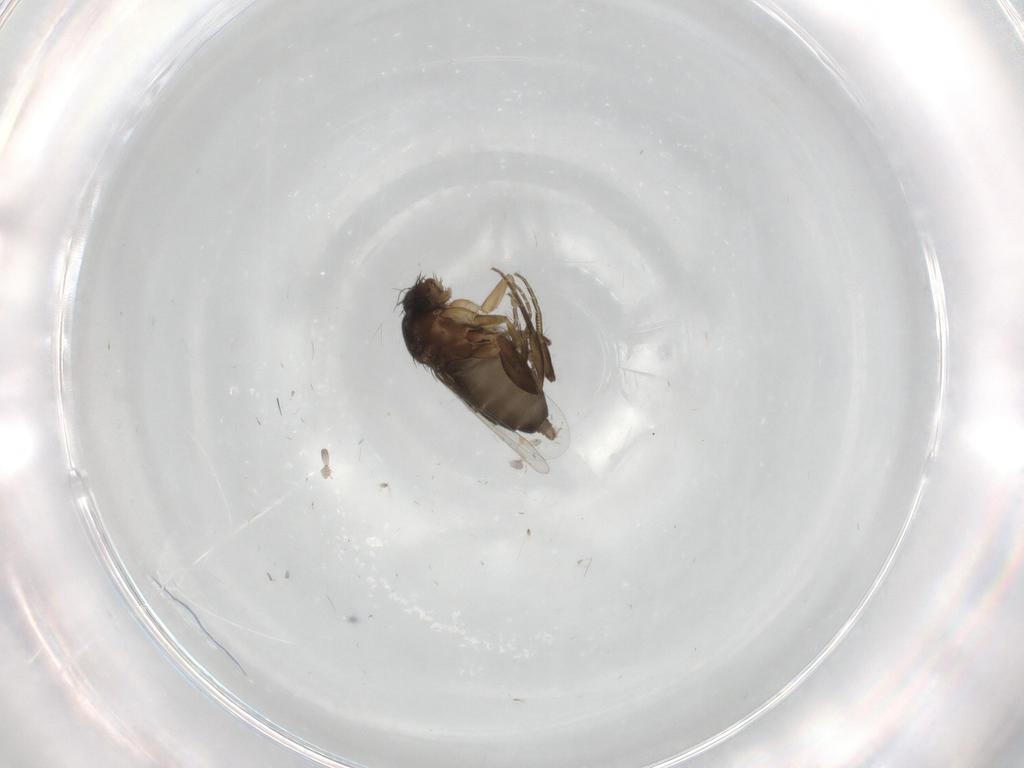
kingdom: Animalia
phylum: Arthropoda
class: Insecta
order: Diptera
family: Phoridae
